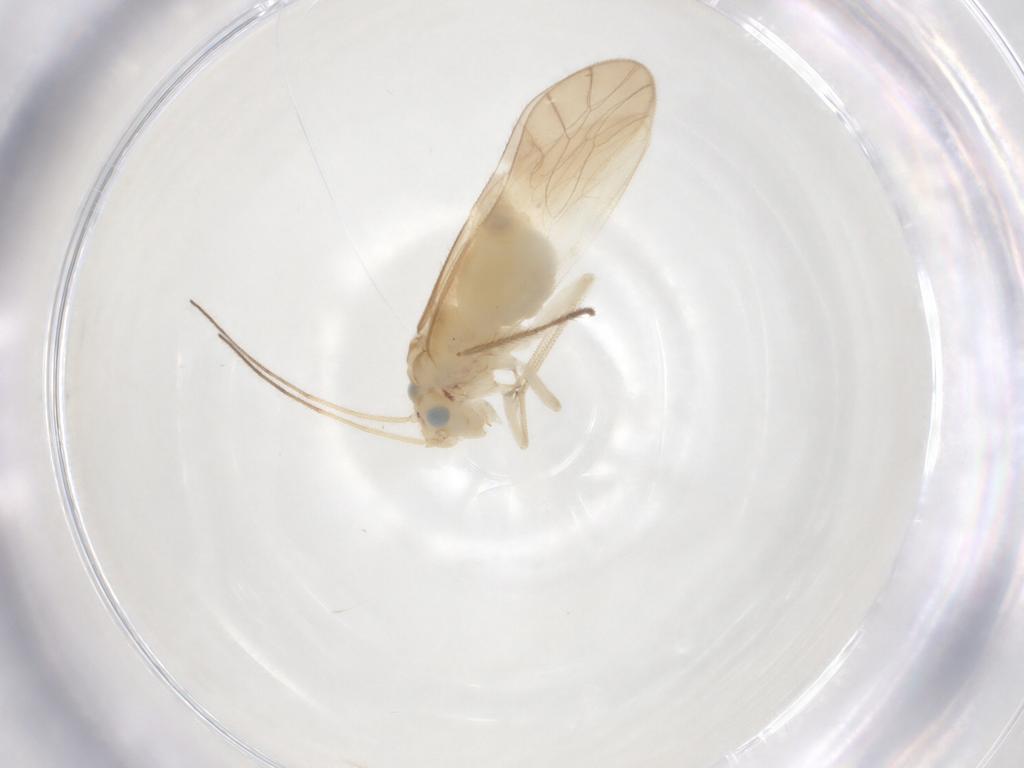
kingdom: Animalia
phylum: Arthropoda
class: Insecta
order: Psocodea
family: Caeciliusidae
